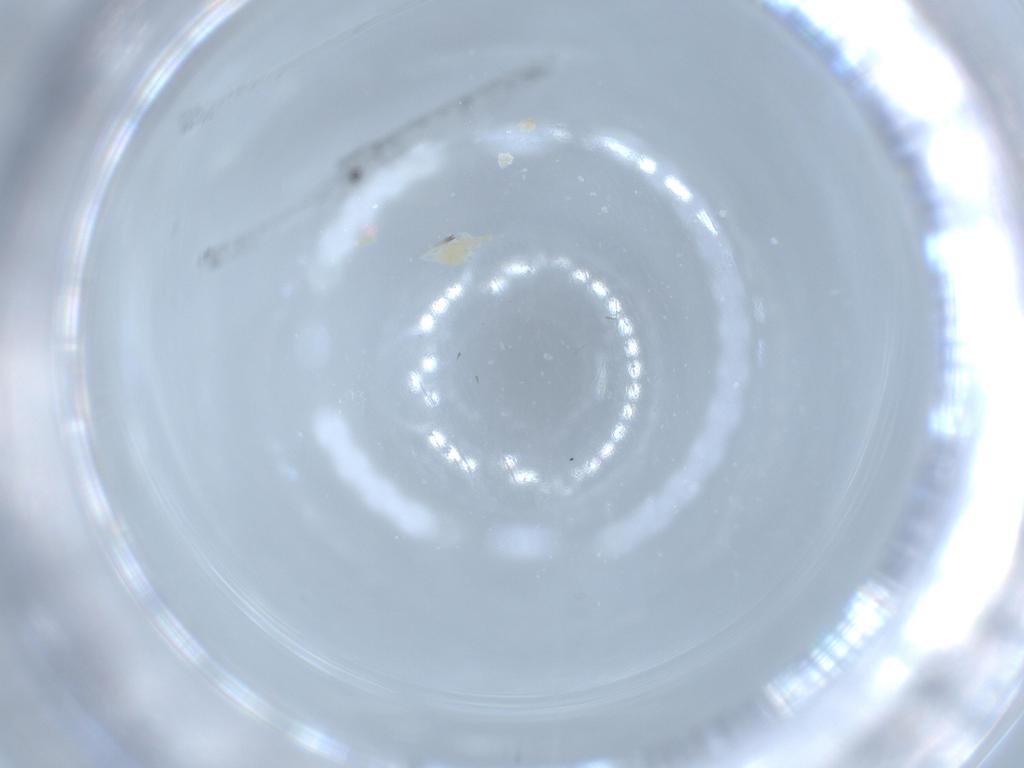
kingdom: Animalia
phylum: Arthropoda
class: Arachnida
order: Trombidiformes
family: Eupodidae
